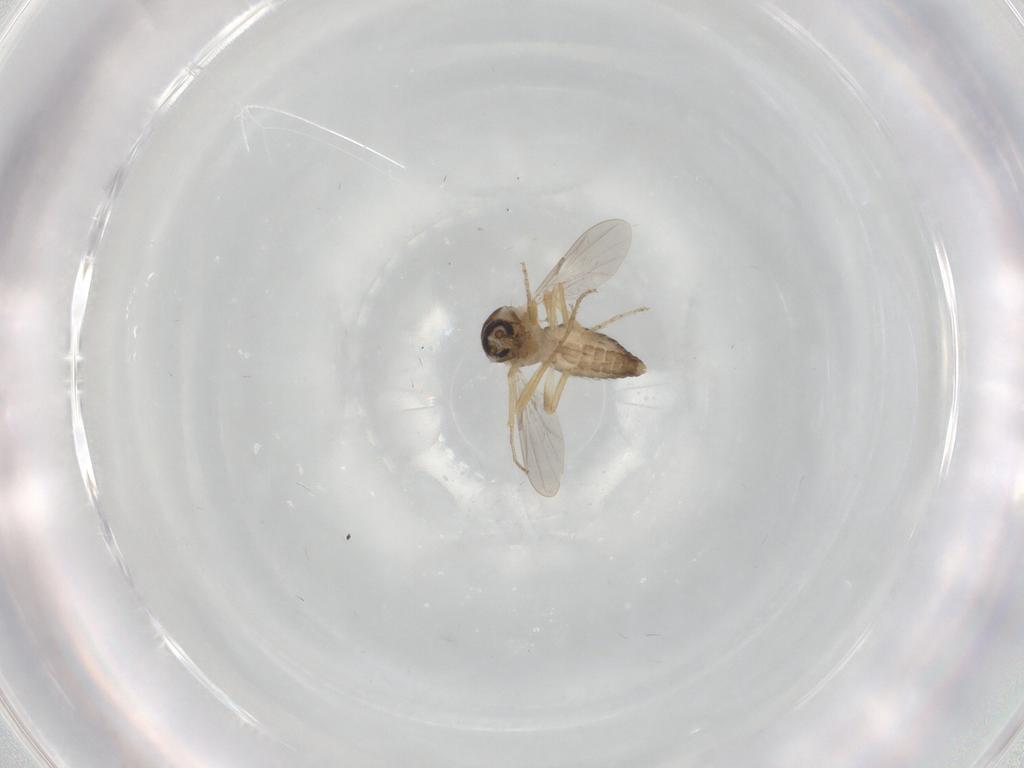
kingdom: Animalia
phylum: Arthropoda
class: Insecta
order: Diptera
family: Ceratopogonidae
